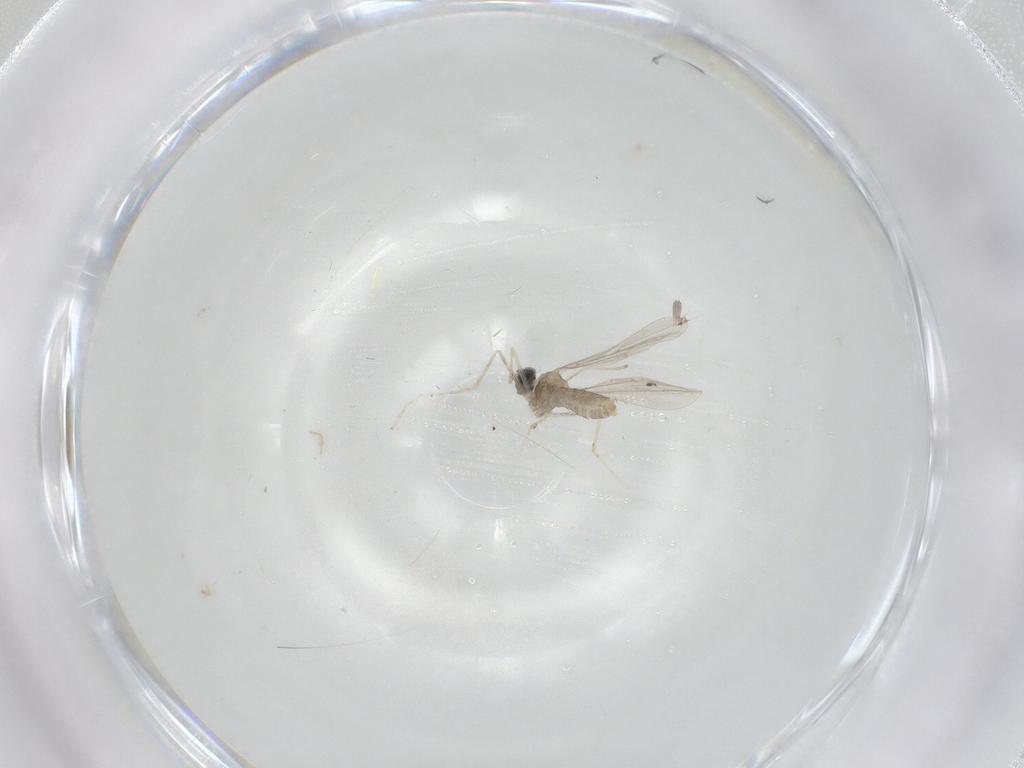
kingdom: Animalia
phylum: Arthropoda
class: Insecta
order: Diptera
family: Cecidomyiidae
